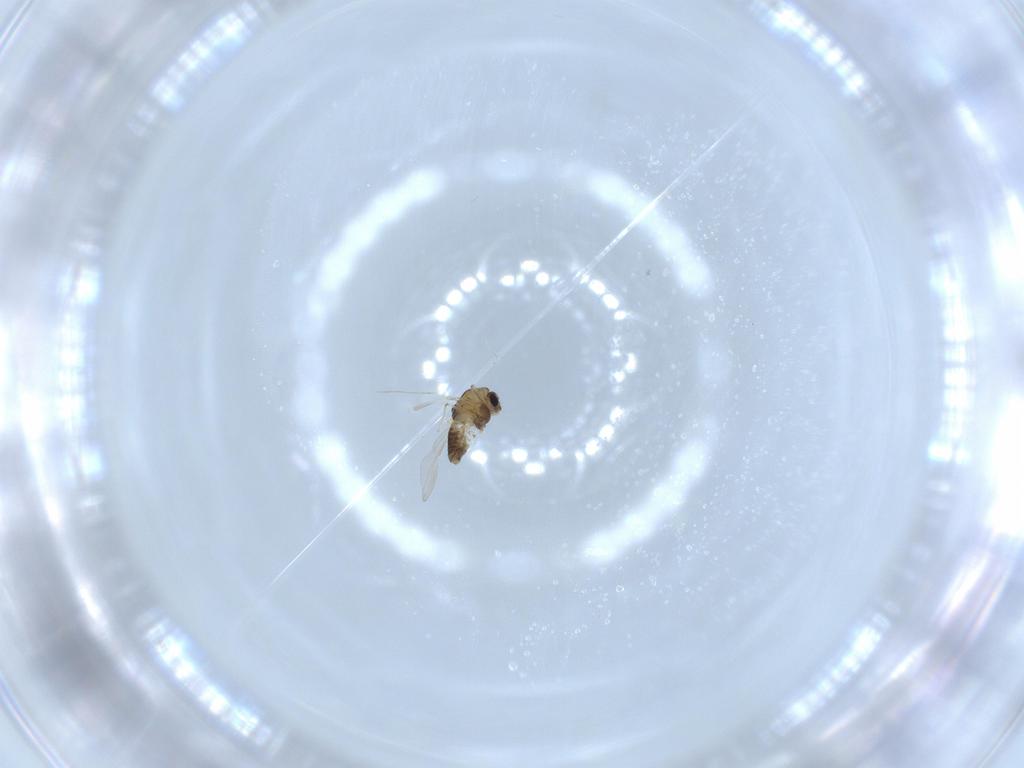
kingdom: Animalia
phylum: Arthropoda
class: Insecta
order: Diptera
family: Chironomidae
